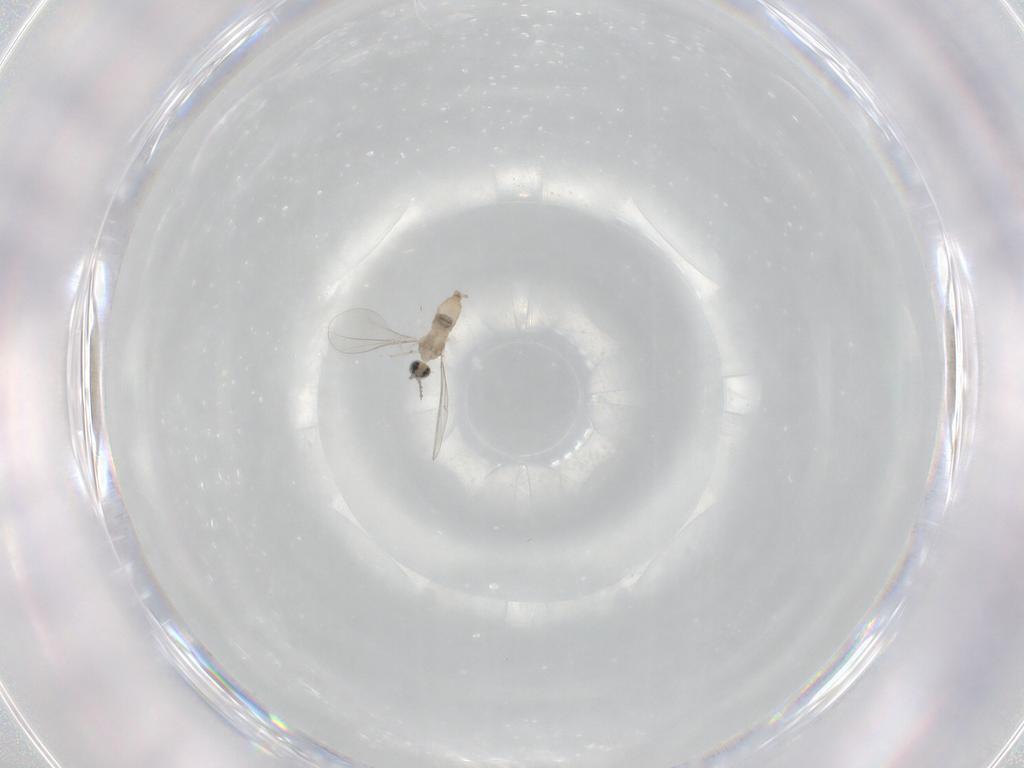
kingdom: Animalia
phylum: Arthropoda
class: Insecta
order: Diptera
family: Cecidomyiidae
